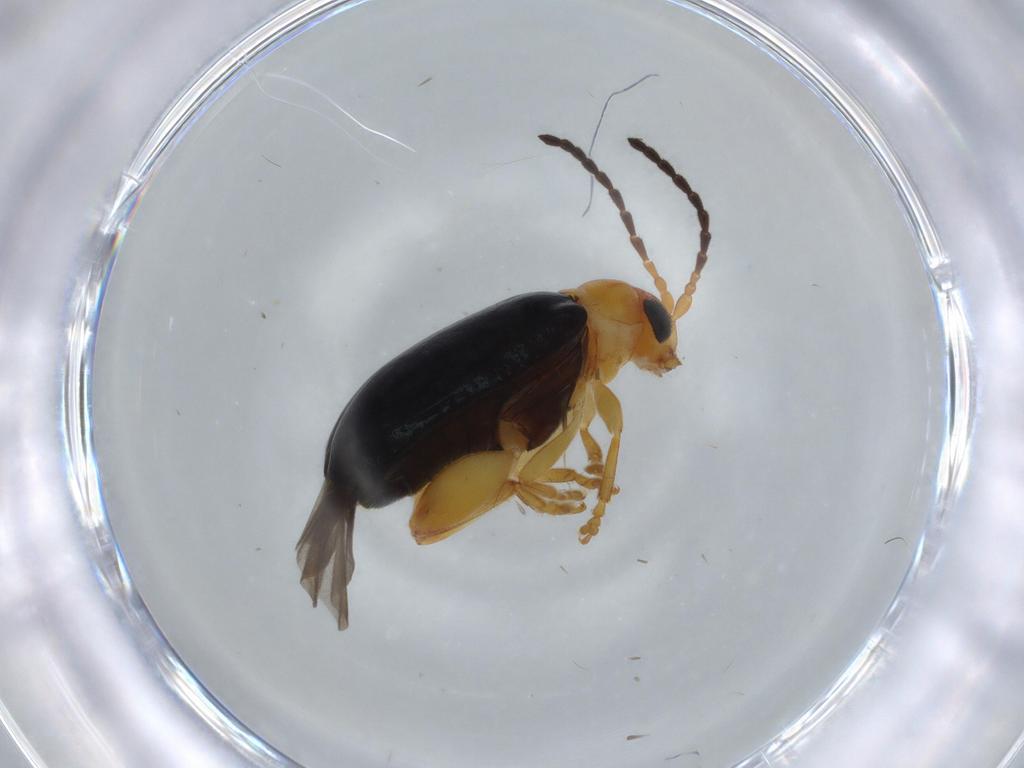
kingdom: Animalia
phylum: Arthropoda
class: Insecta
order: Coleoptera
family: Chrysomelidae
